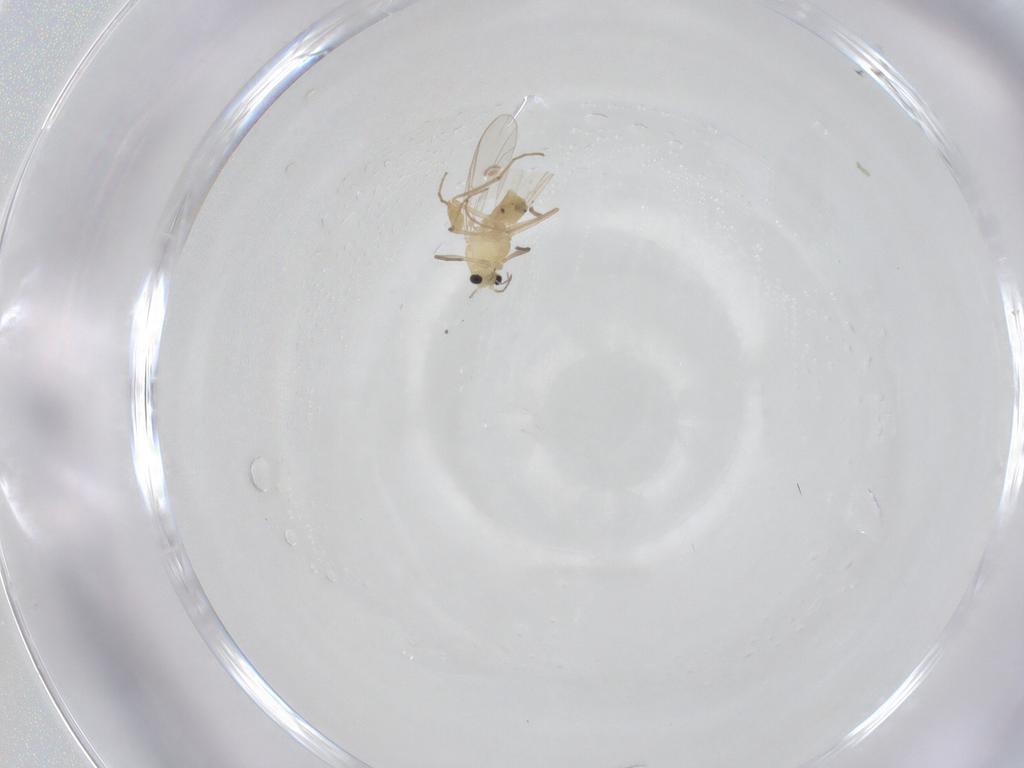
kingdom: Animalia
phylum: Arthropoda
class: Insecta
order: Diptera
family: Chironomidae
